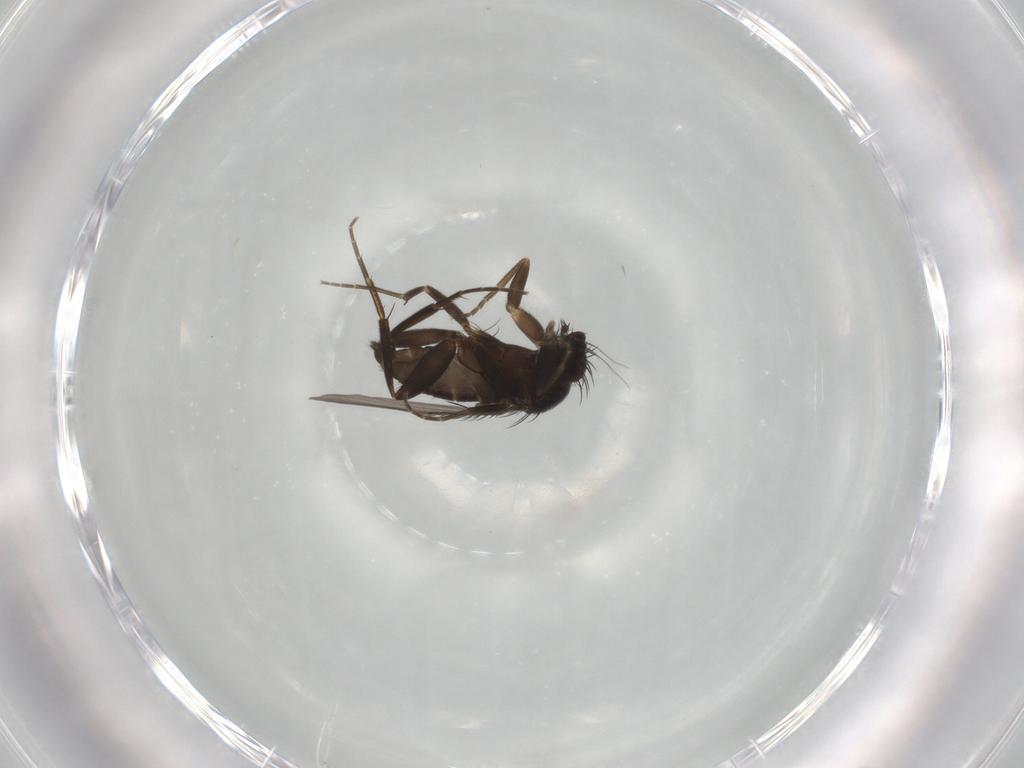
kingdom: Animalia
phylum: Arthropoda
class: Insecta
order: Diptera
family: Phoridae
